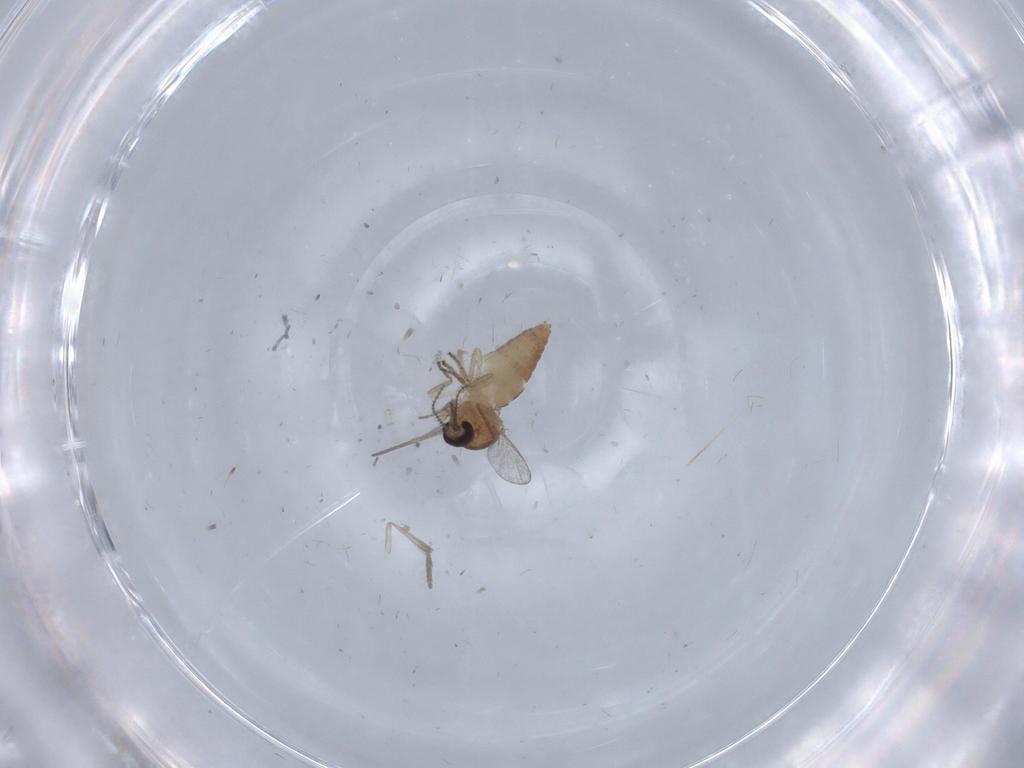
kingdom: Animalia
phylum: Arthropoda
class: Insecta
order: Diptera
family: Ceratopogonidae
